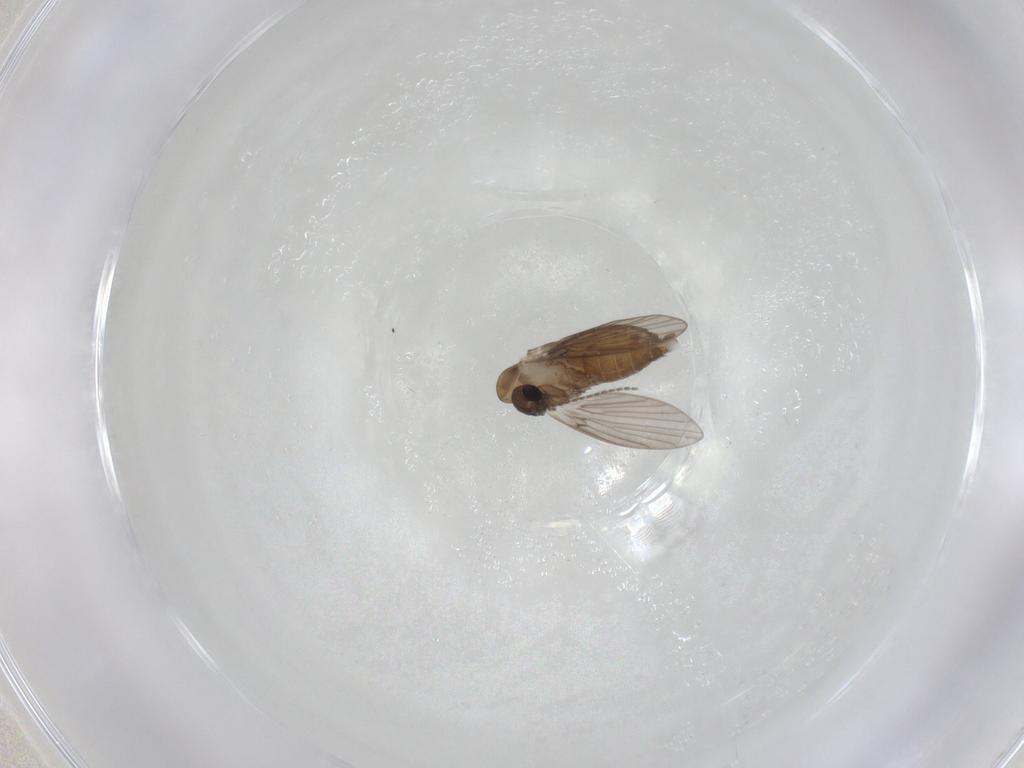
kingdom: Animalia
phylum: Arthropoda
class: Insecta
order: Diptera
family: Psychodidae
